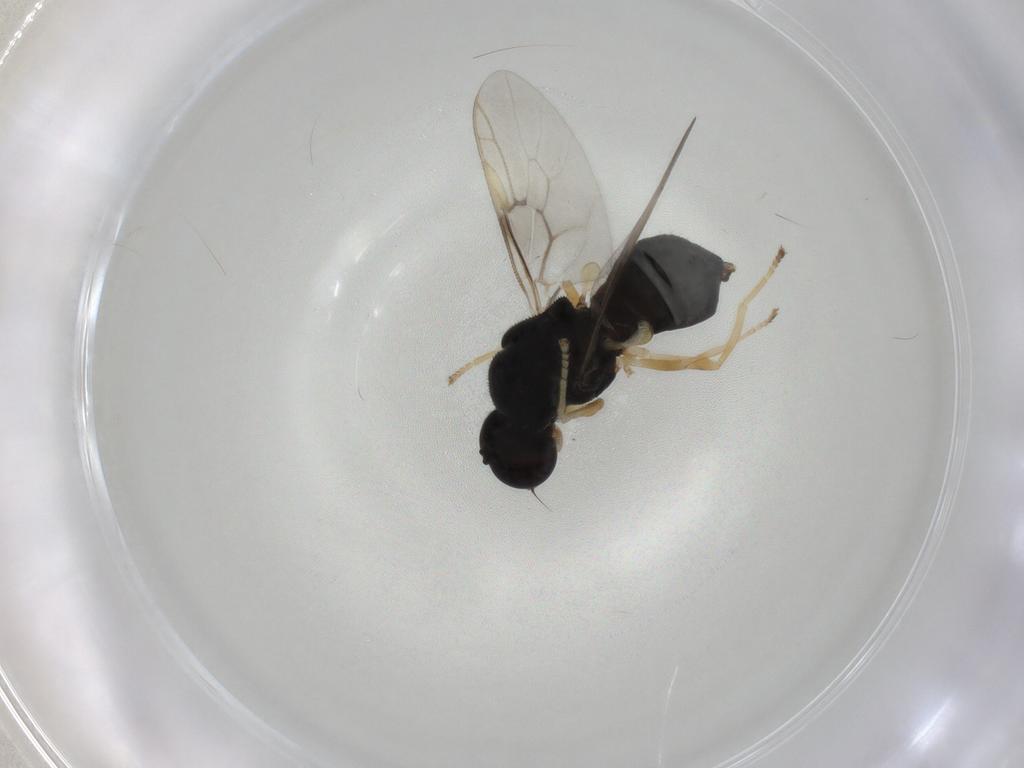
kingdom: Animalia
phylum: Arthropoda
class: Insecta
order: Diptera
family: Stratiomyidae
